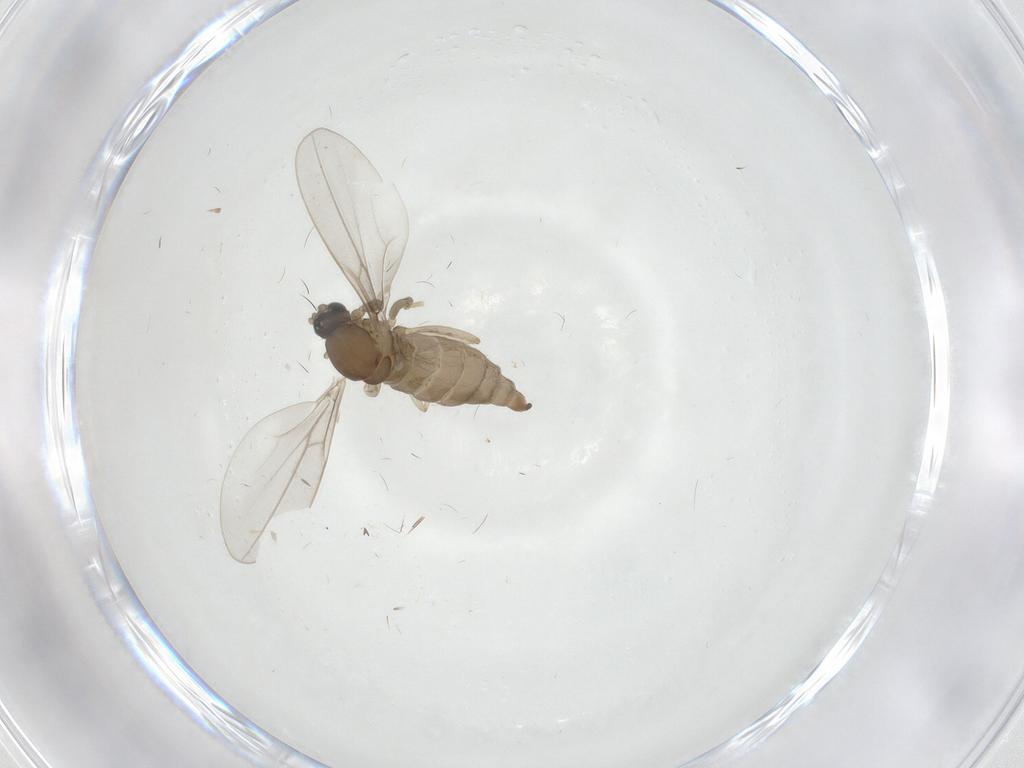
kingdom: Animalia
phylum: Arthropoda
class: Insecta
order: Diptera
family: Cecidomyiidae
